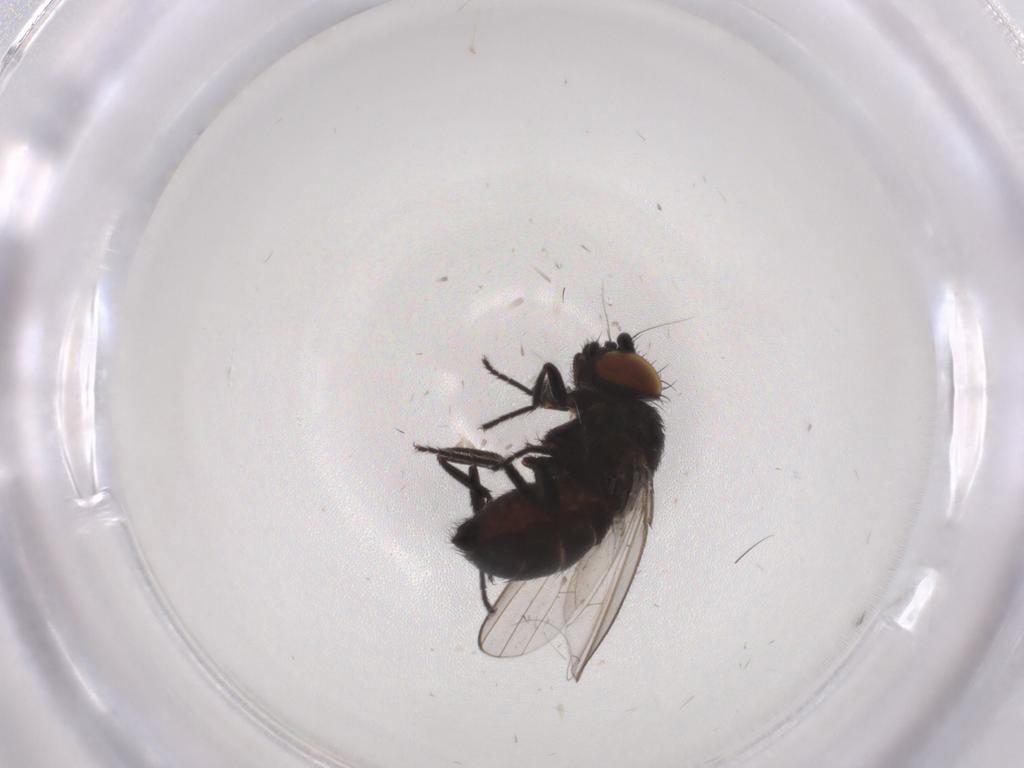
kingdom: Animalia
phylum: Arthropoda
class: Insecta
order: Diptera
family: Milichiidae
